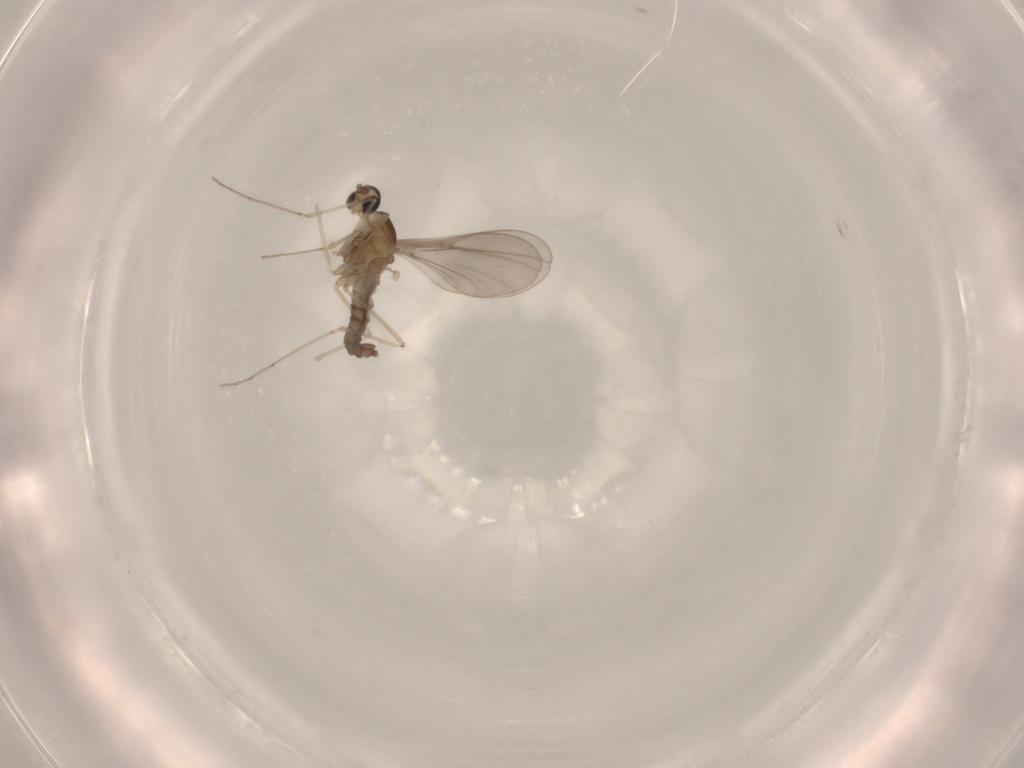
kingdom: Animalia
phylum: Arthropoda
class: Insecta
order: Diptera
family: Cecidomyiidae
